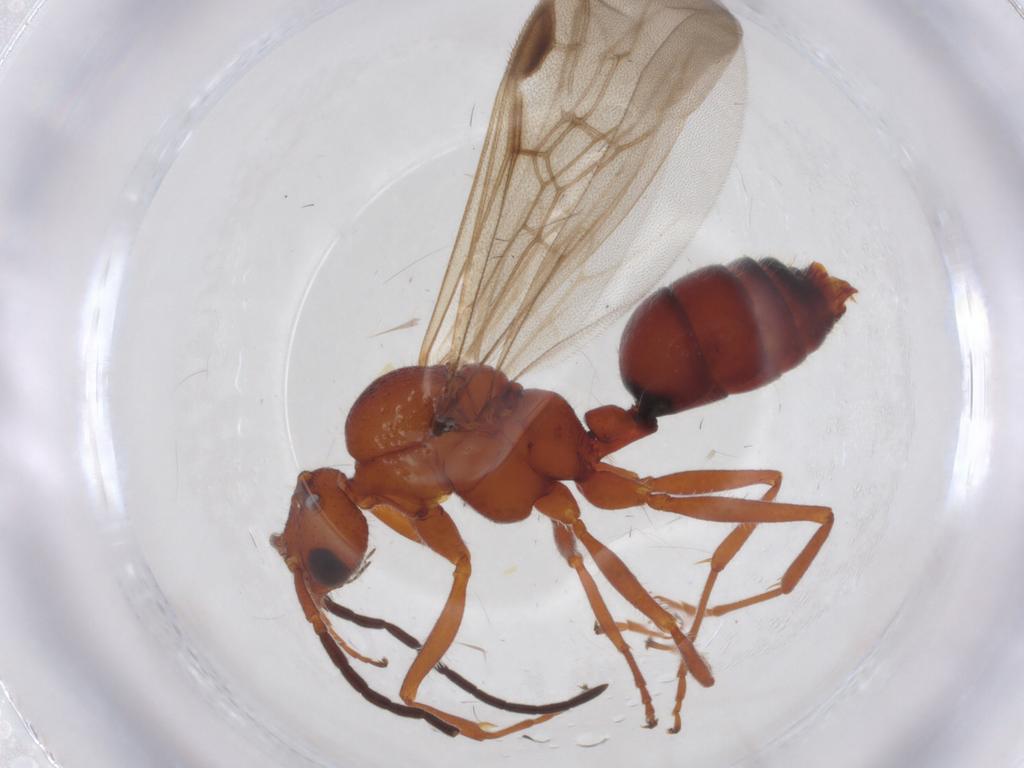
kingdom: Animalia
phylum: Arthropoda
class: Insecta
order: Hymenoptera
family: Formicidae
